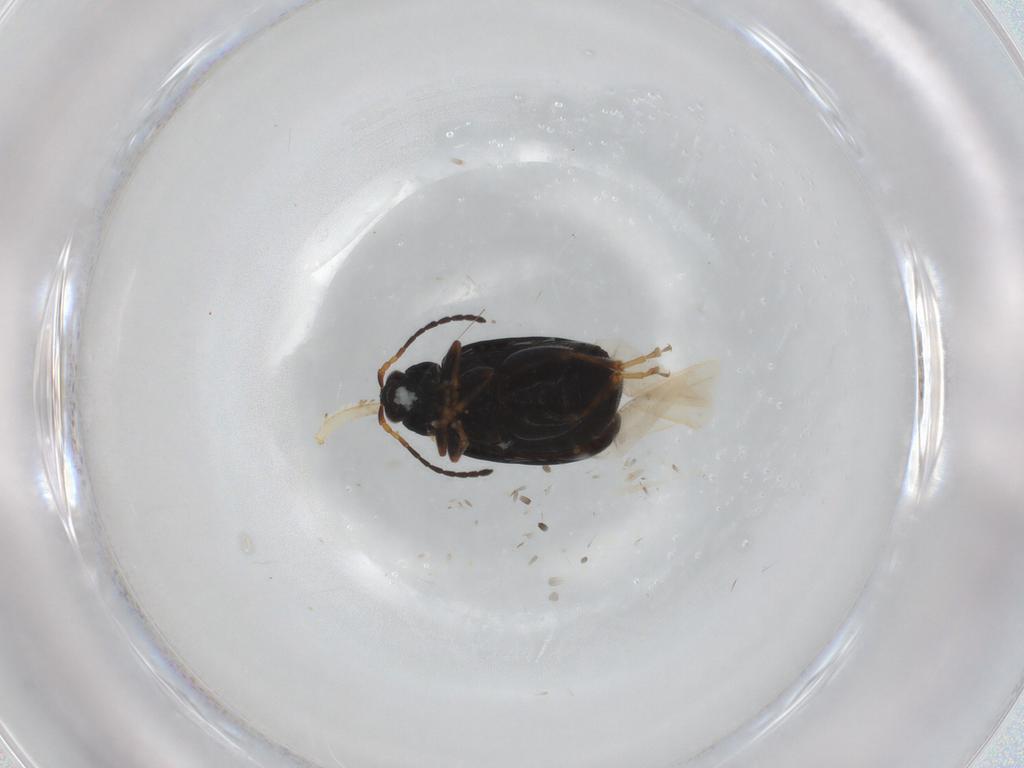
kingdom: Animalia
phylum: Arthropoda
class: Insecta
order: Coleoptera
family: Chrysomelidae
